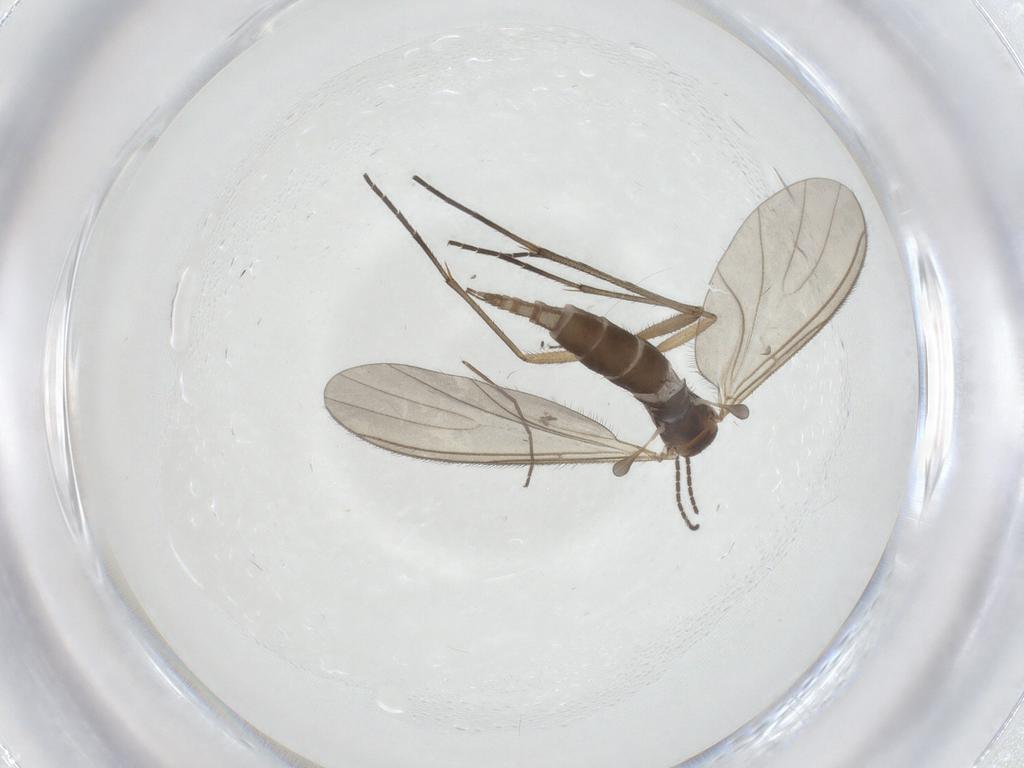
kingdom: Animalia
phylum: Arthropoda
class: Insecta
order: Diptera
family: Sciaridae
